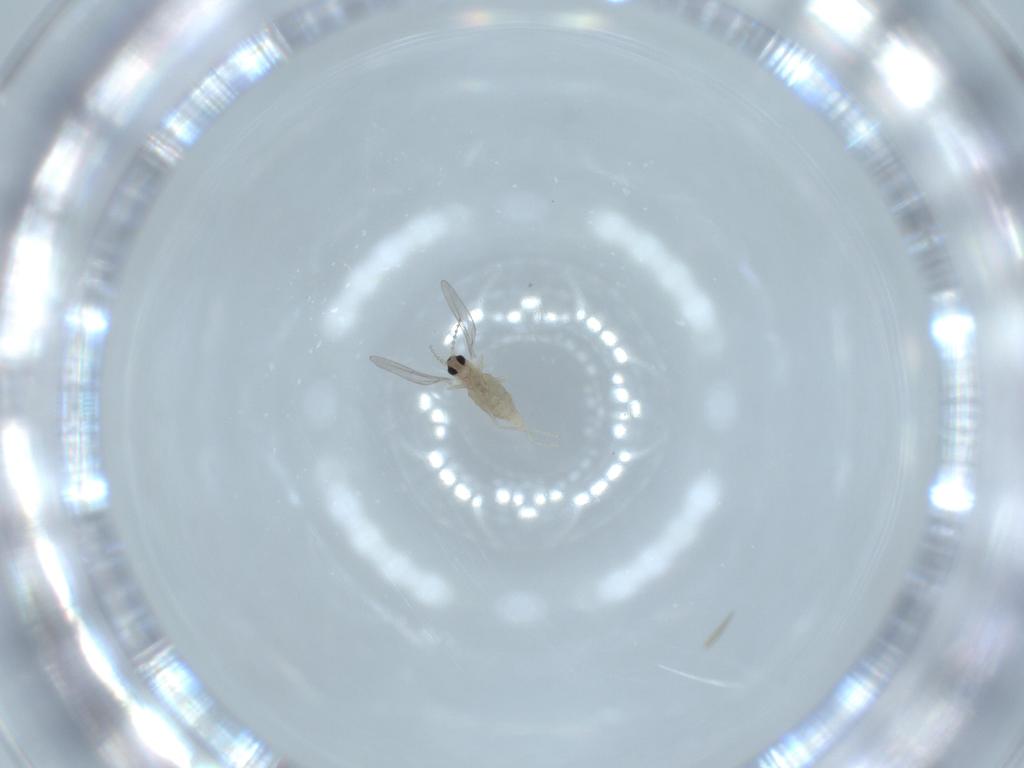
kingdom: Animalia
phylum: Arthropoda
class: Insecta
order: Diptera
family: Cecidomyiidae
